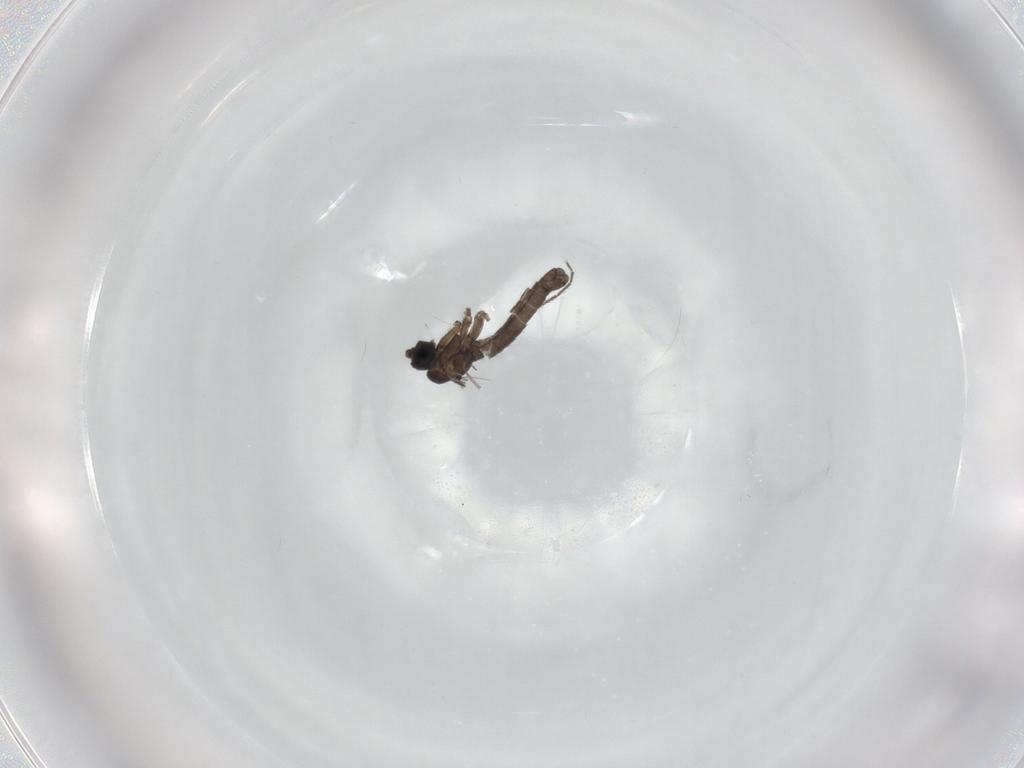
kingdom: Animalia
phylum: Arthropoda
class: Insecta
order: Diptera
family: Sciaridae
